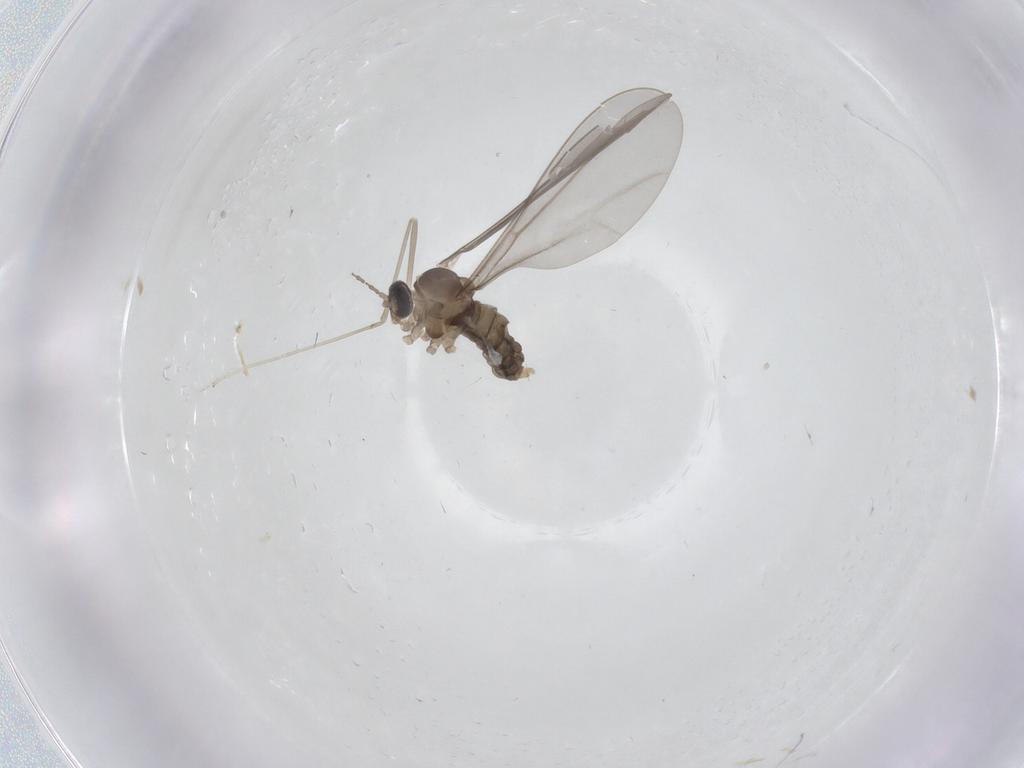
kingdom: Animalia
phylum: Arthropoda
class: Insecta
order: Diptera
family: Cecidomyiidae
